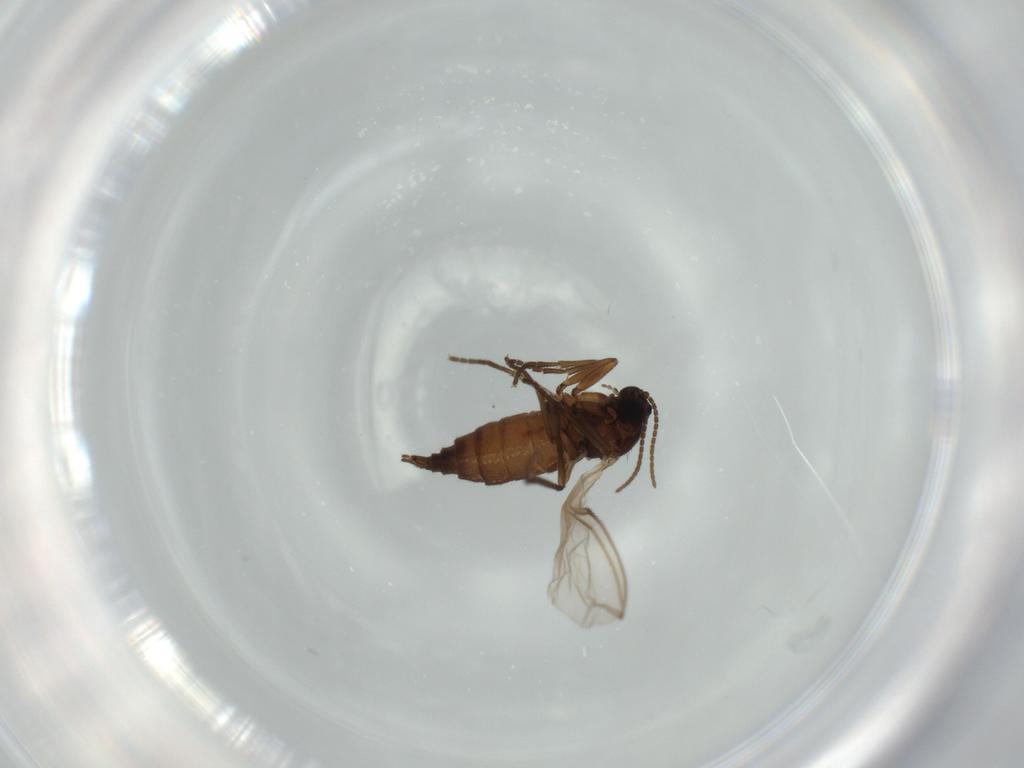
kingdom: Animalia
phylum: Arthropoda
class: Insecta
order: Diptera
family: Sciaridae
